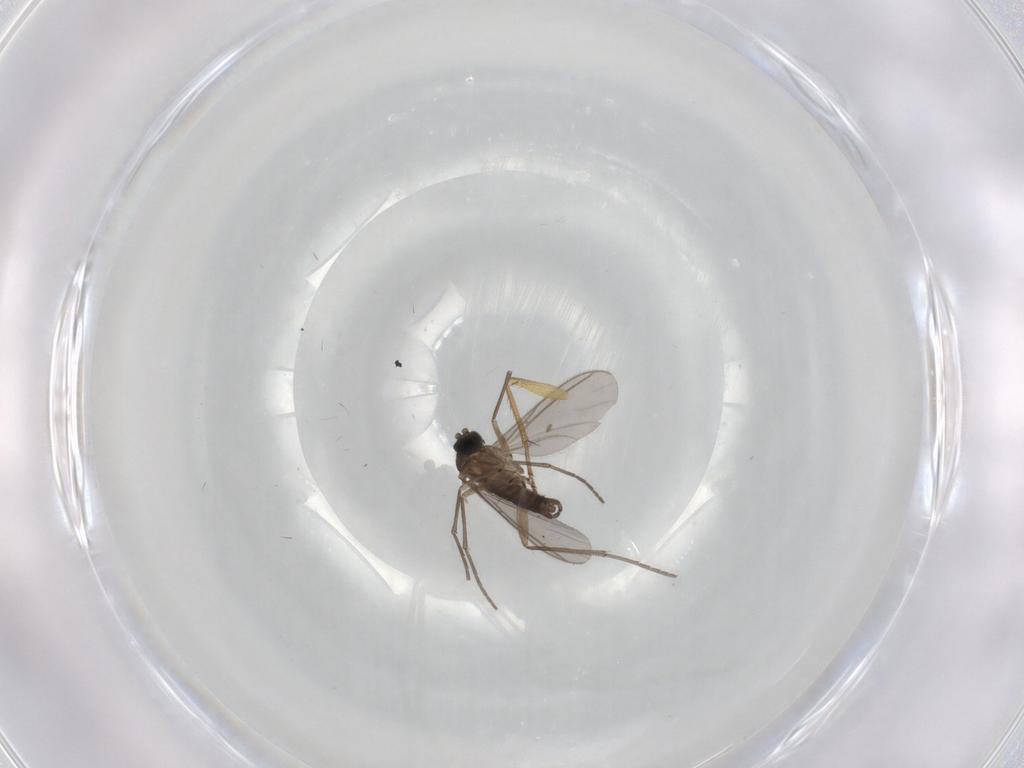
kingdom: Animalia
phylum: Arthropoda
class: Insecta
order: Diptera
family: Sciaridae
